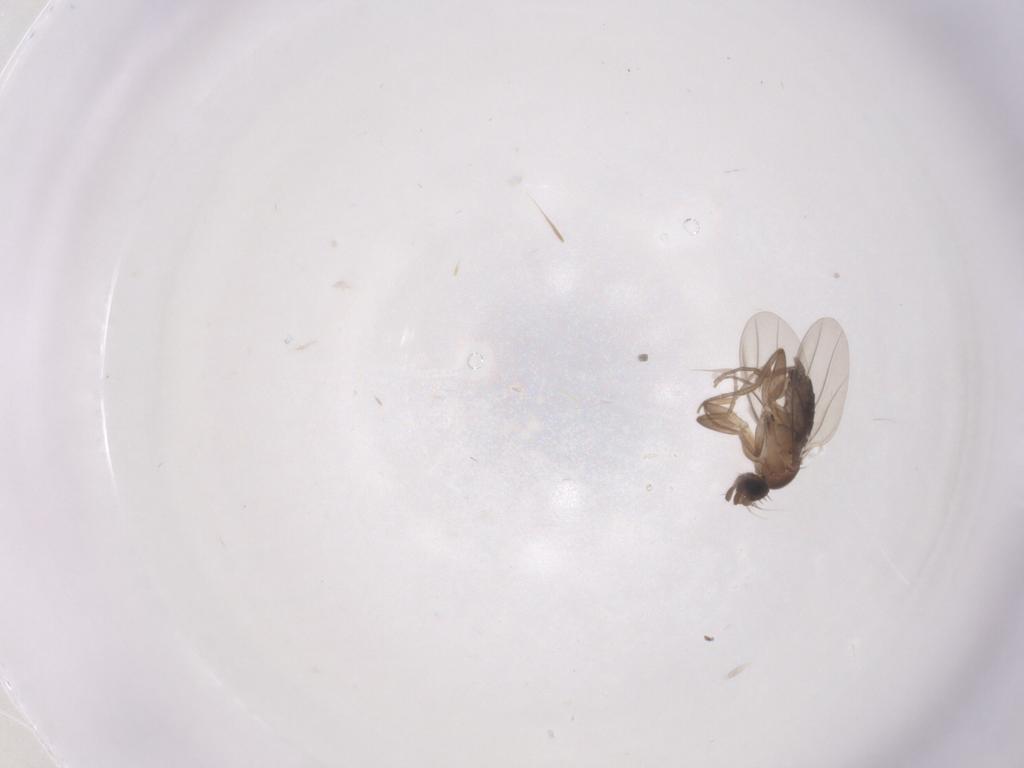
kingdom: Animalia
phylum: Arthropoda
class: Insecta
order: Diptera
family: Phoridae
